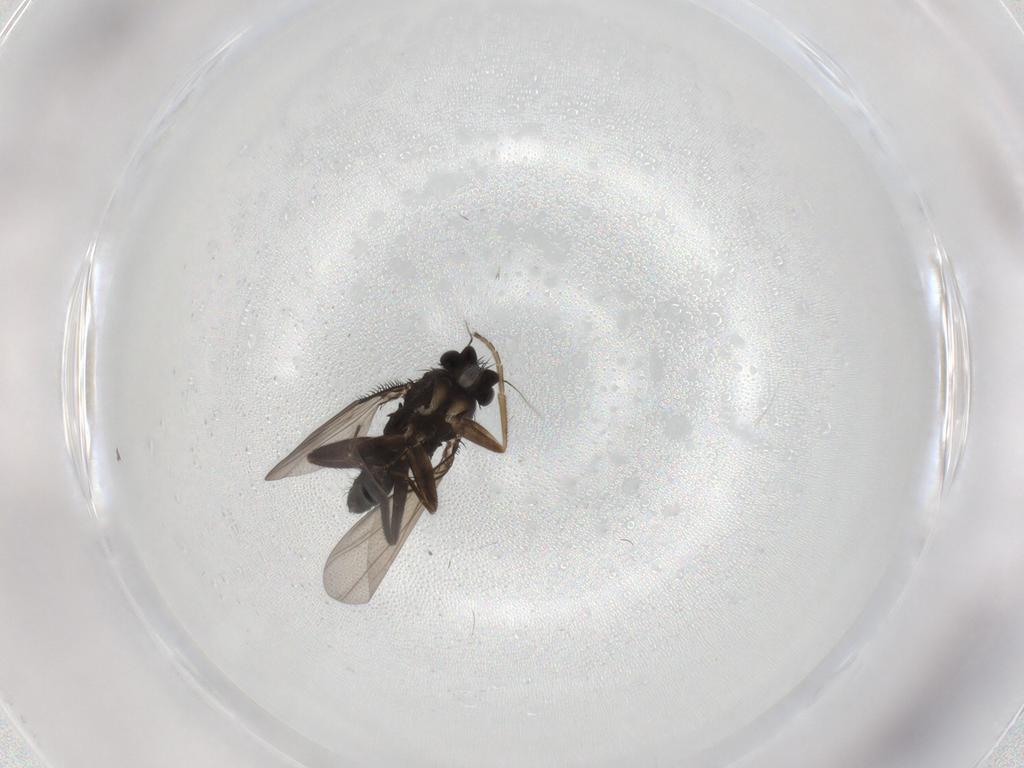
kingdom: Animalia
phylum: Arthropoda
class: Insecta
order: Diptera
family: Phoridae
